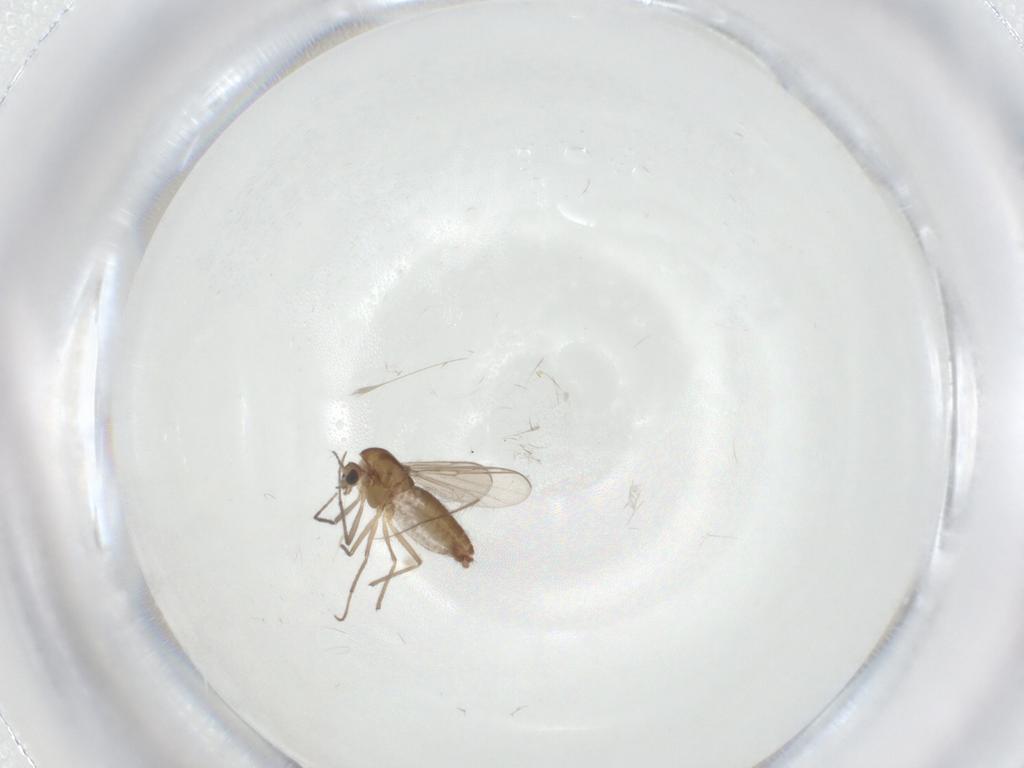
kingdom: Animalia
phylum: Arthropoda
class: Insecta
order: Diptera
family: Chironomidae
